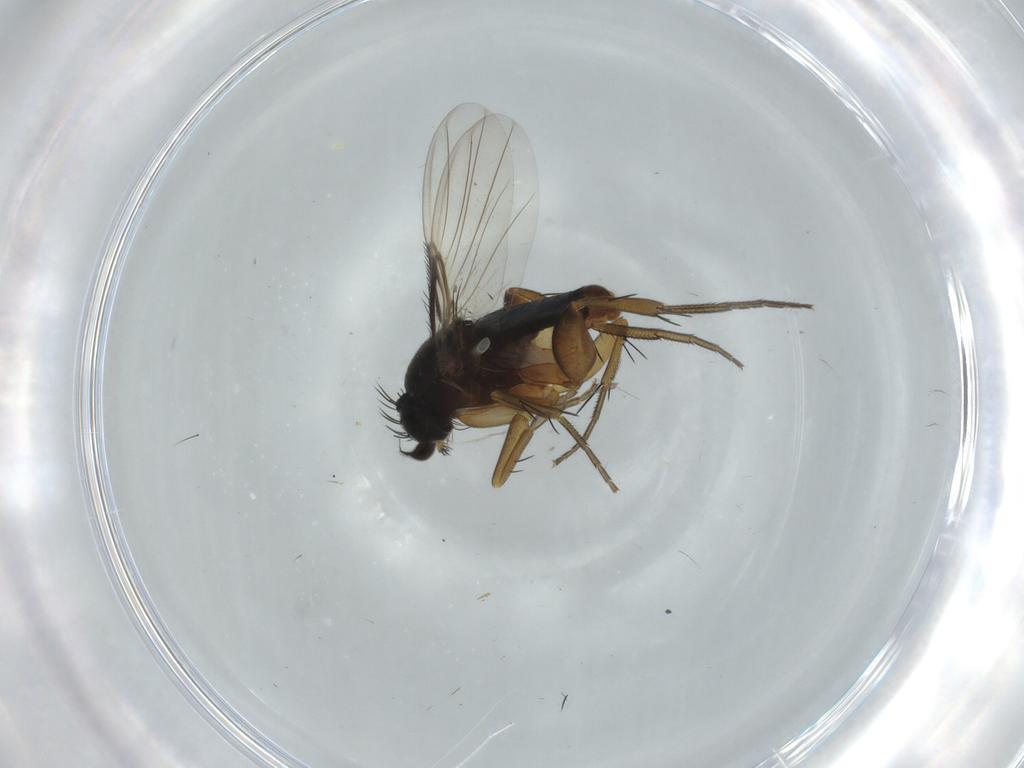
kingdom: Animalia
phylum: Arthropoda
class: Insecta
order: Diptera
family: Phoridae
